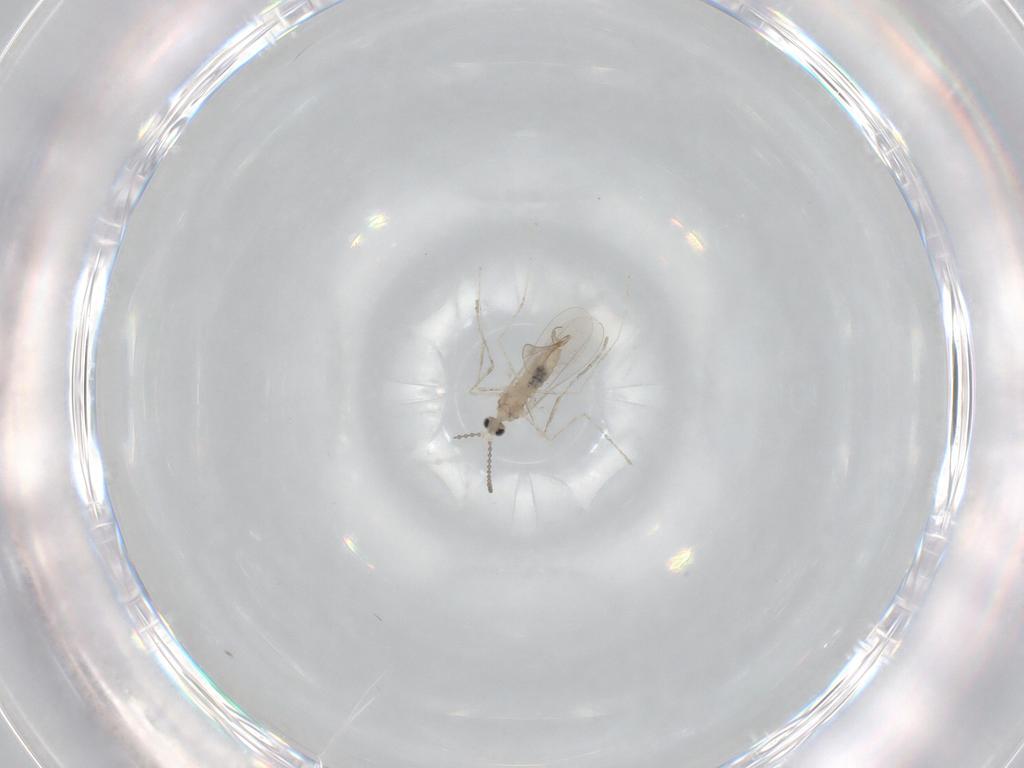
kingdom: Animalia
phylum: Arthropoda
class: Insecta
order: Diptera
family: Cecidomyiidae
